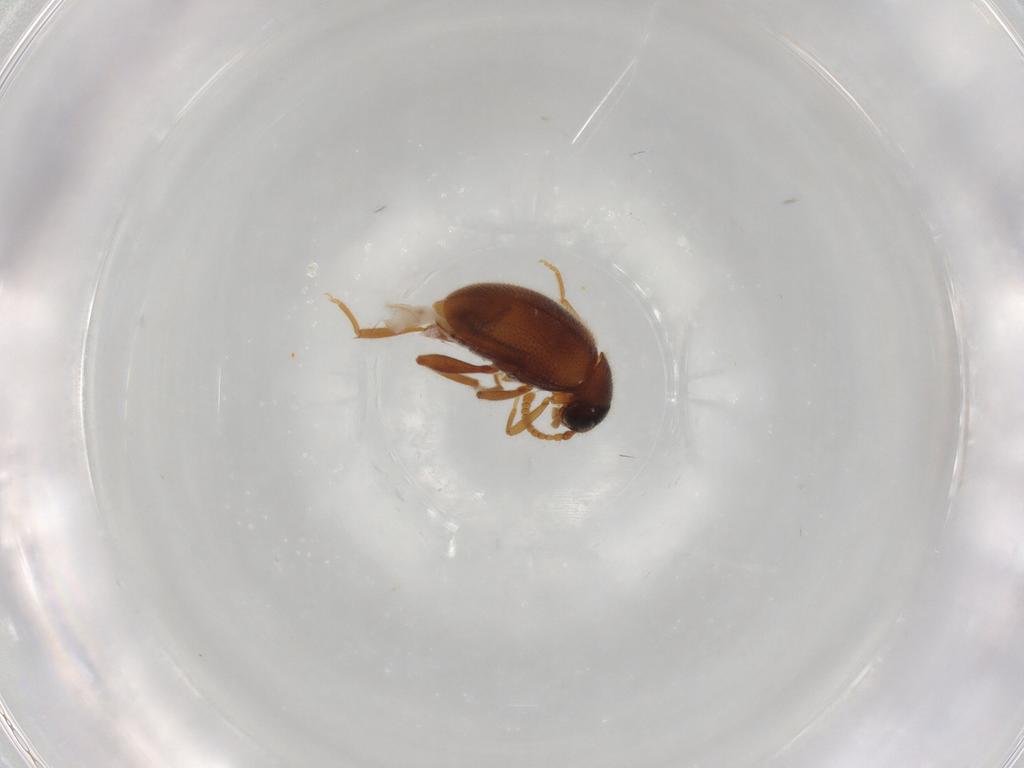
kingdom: Animalia
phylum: Arthropoda
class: Insecta
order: Coleoptera
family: Aderidae
